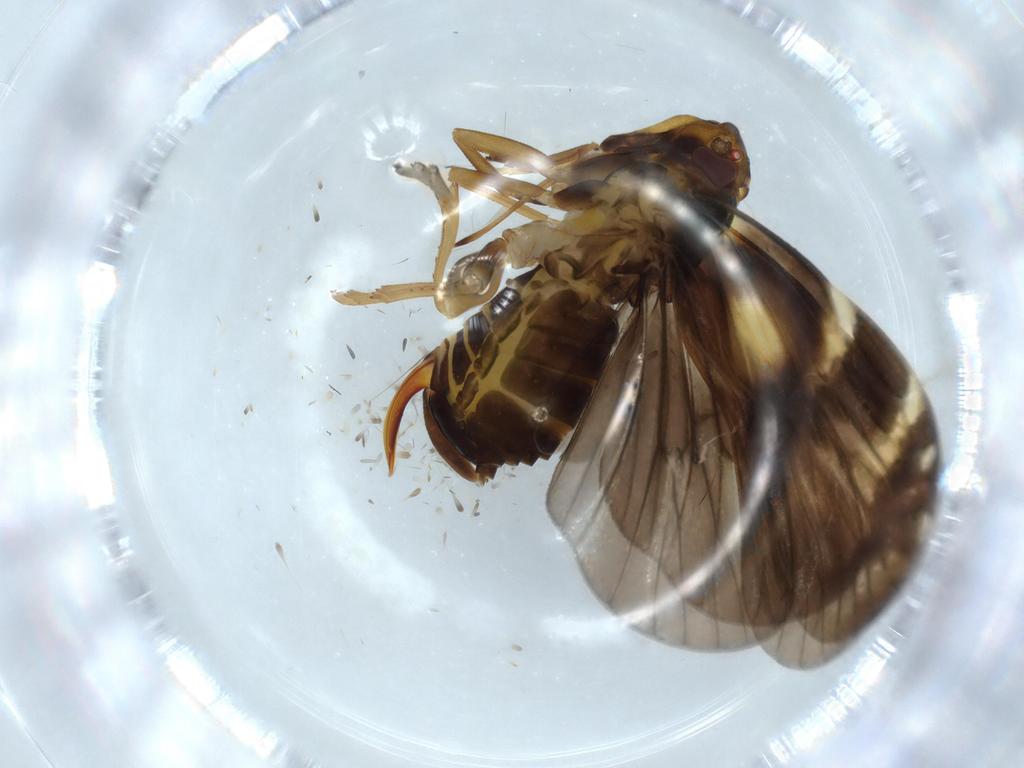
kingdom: Animalia
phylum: Arthropoda
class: Insecta
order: Hemiptera
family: Cixiidae
